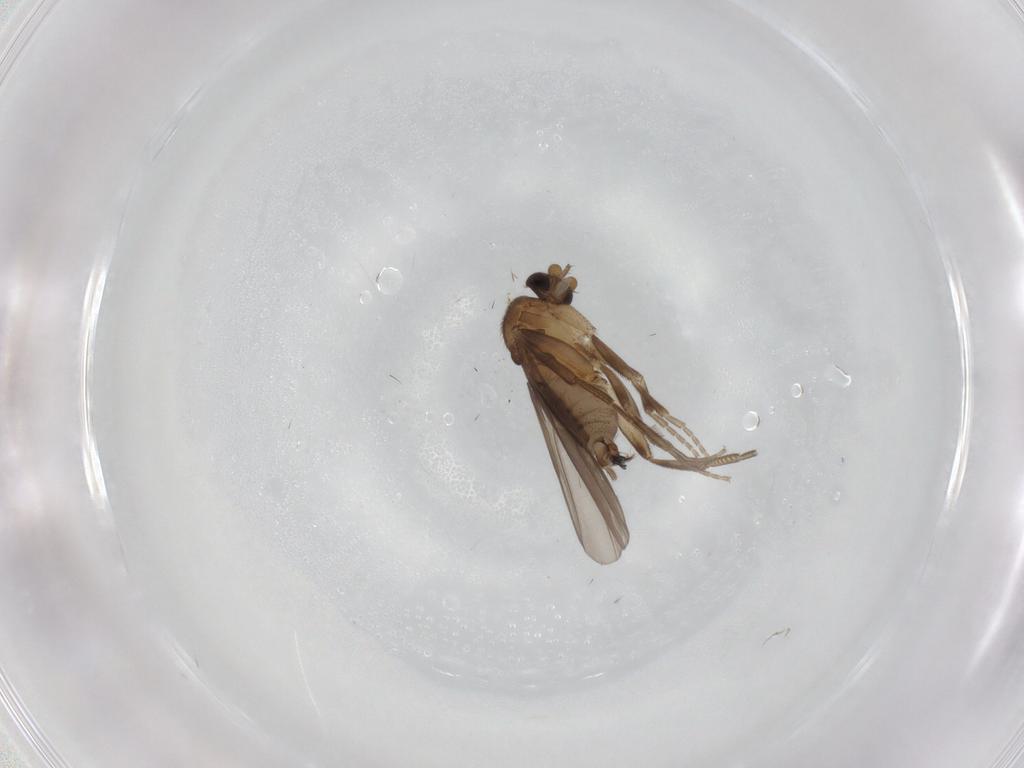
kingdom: Animalia
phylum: Arthropoda
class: Insecta
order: Diptera
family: Chironomidae
